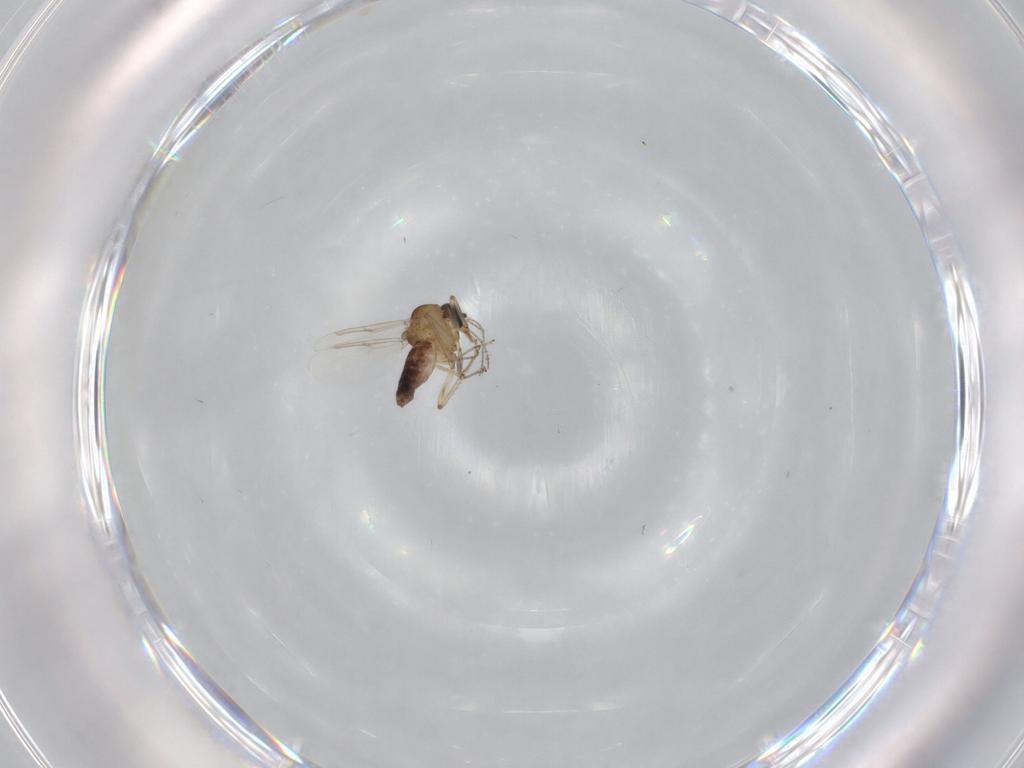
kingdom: Animalia
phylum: Arthropoda
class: Insecta
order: Diptera
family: Ceratopogonidae
